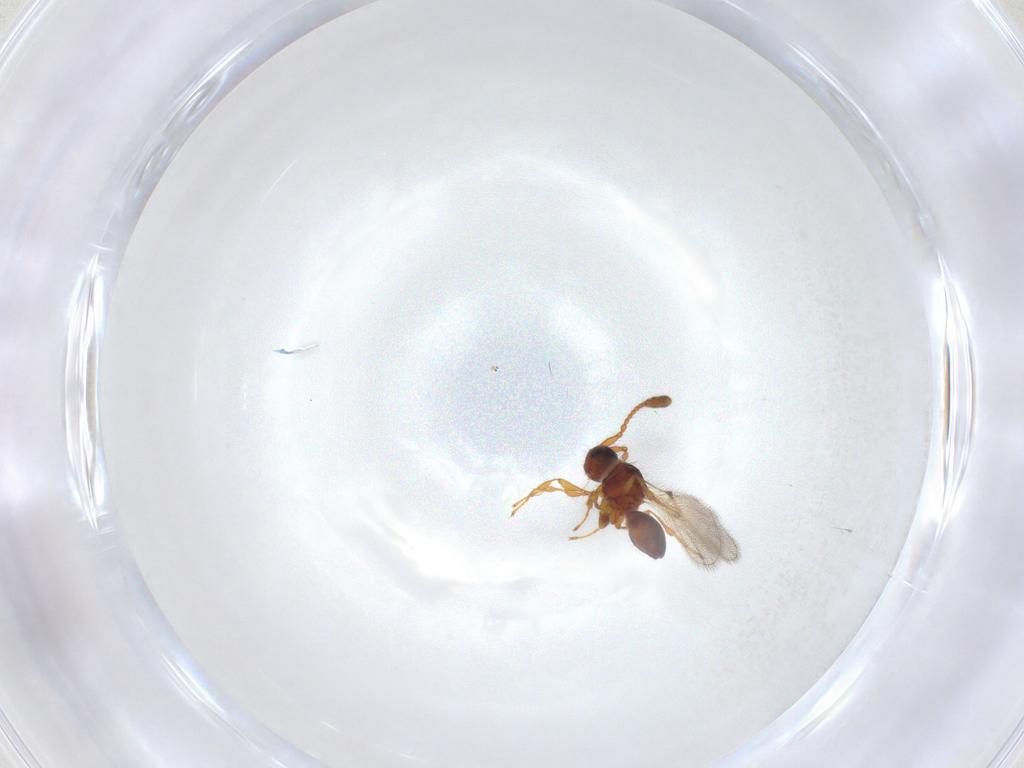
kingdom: Animalia
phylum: Arthropoda
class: Insecta
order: Hymenoptera
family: Diapriidae
